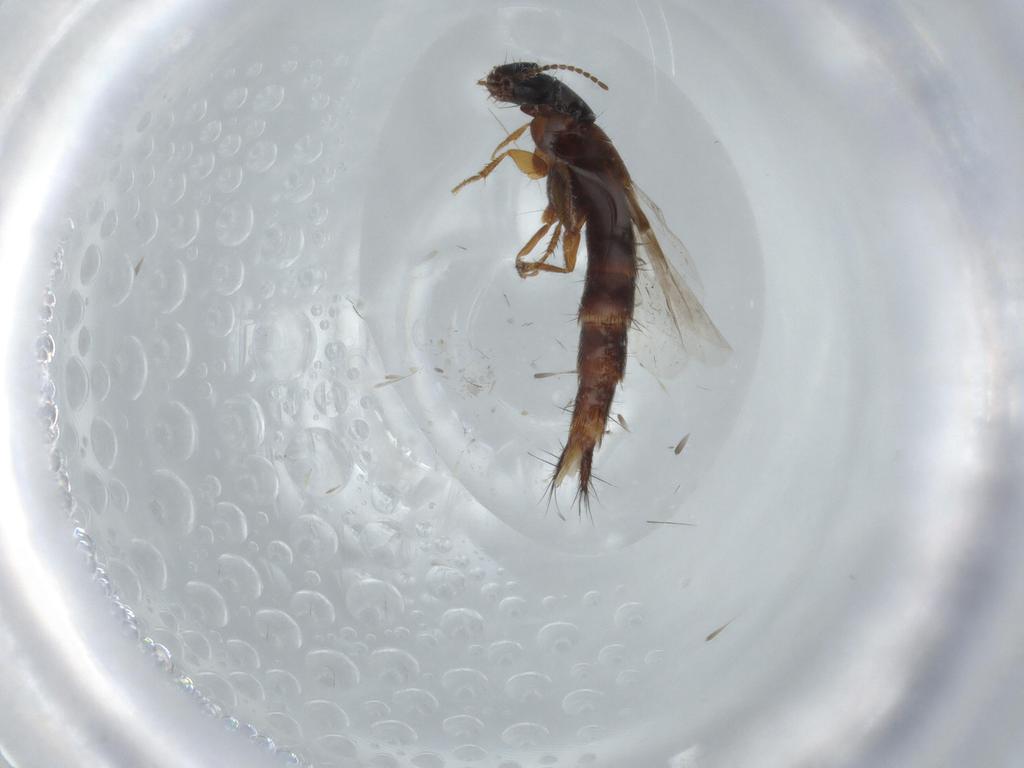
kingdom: Animalia
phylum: Arthropoda
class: Insecta
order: Coleoptera
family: Staphylinidae
